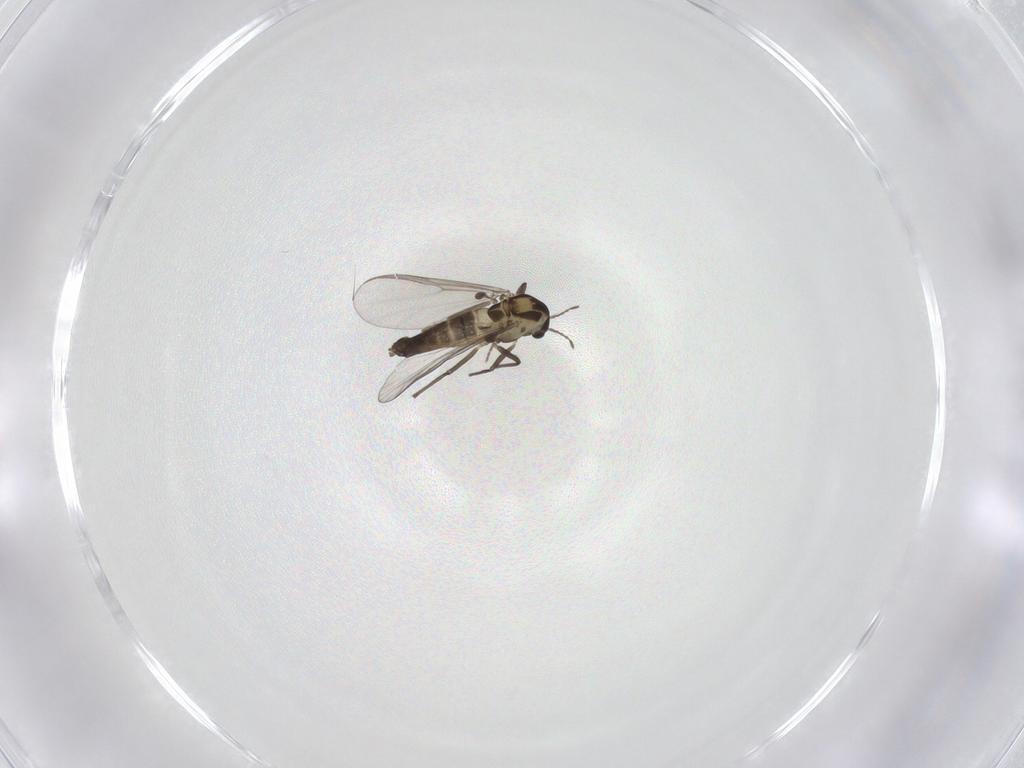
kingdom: Animalia
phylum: Arthropoda
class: Insecta
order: Diptera
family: Chironomidae
